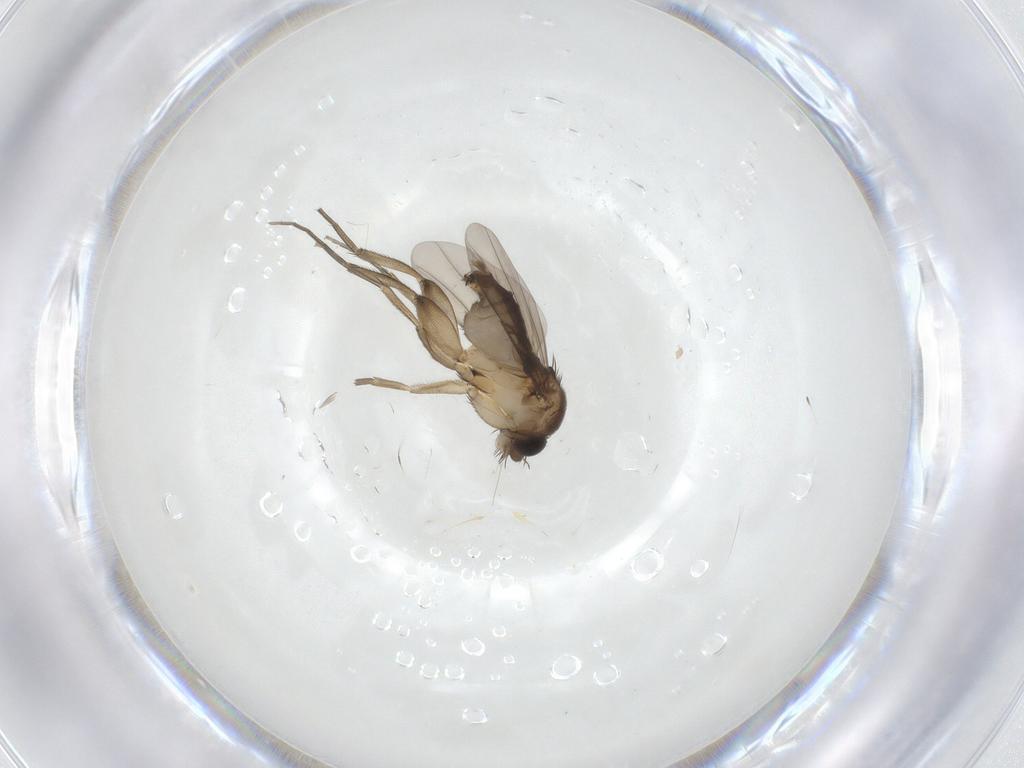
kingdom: Animalia
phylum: Arthropoda
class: Insecta
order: Diptera
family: Phoridae
